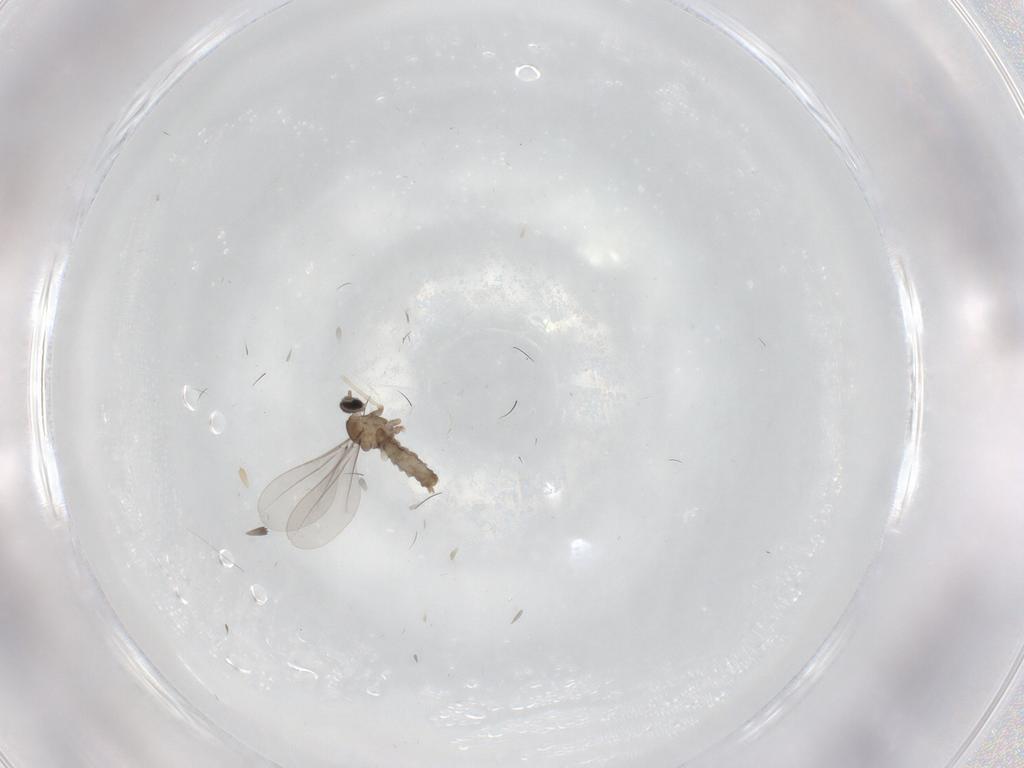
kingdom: Animalia
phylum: Arthropoda
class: Insecta
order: Diptera
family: Cecidomyiidae
